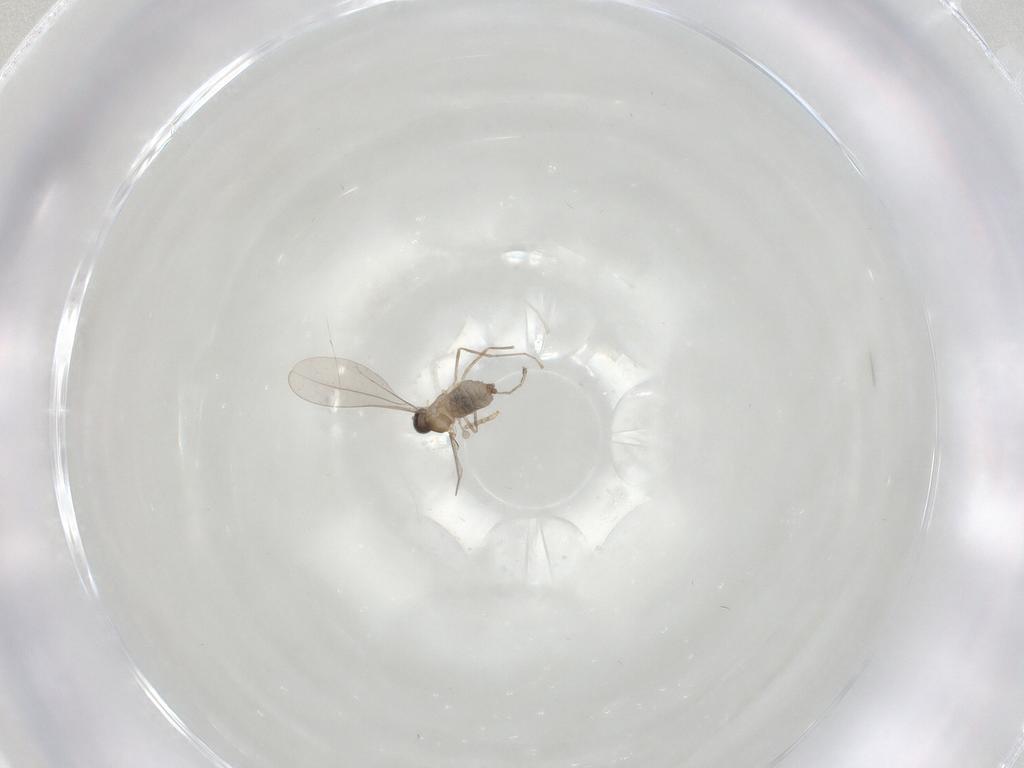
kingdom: Animalia
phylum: Arthropoda
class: Insecta
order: Diptera
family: Cecidomyiidae
